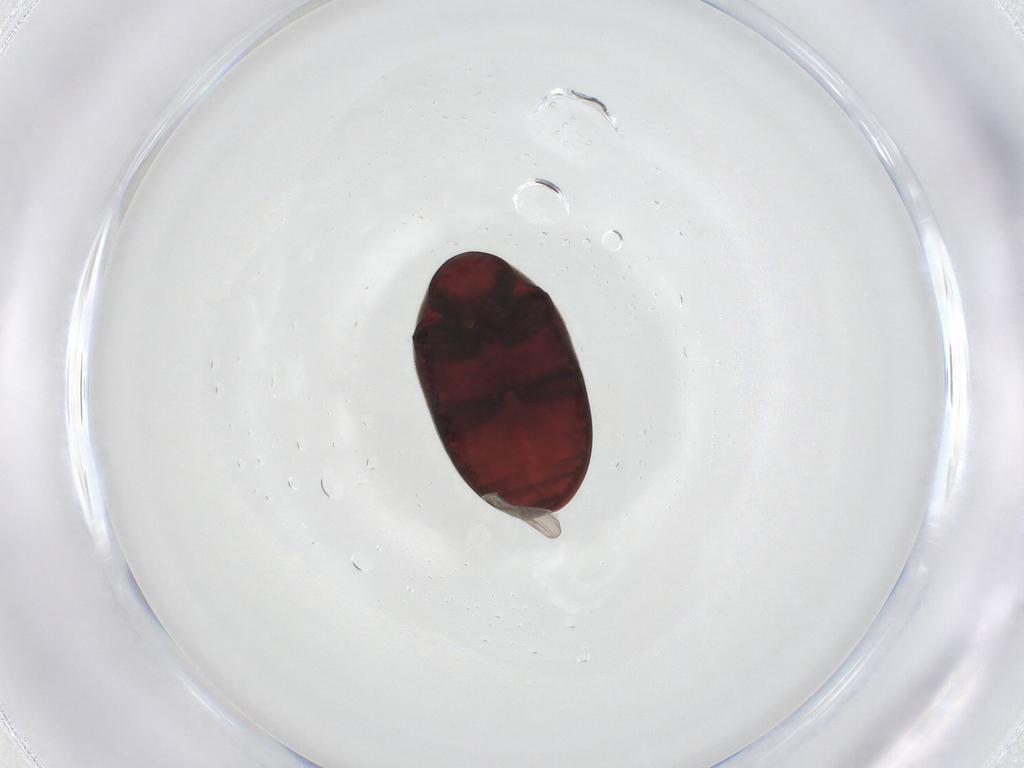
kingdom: Animalia
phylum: Arthropoda
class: Insecta
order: Coleoptera
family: Ptinidae
